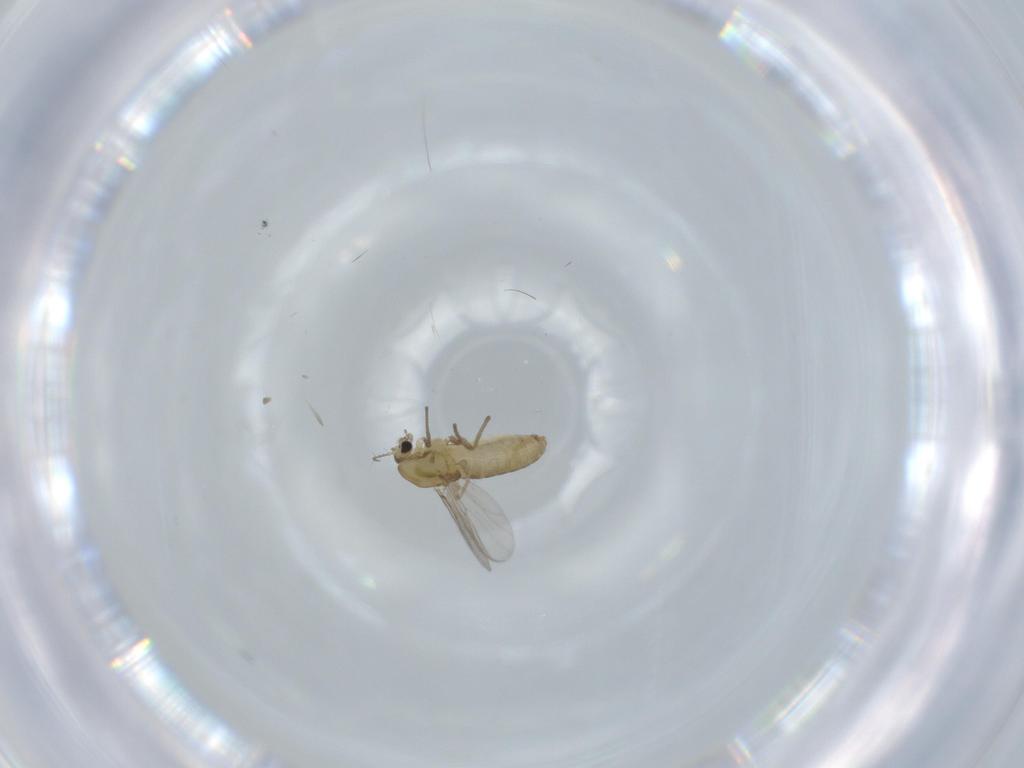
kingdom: Animalia
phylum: Arthropoda
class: Insecta
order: Diptera
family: Chironomidae
